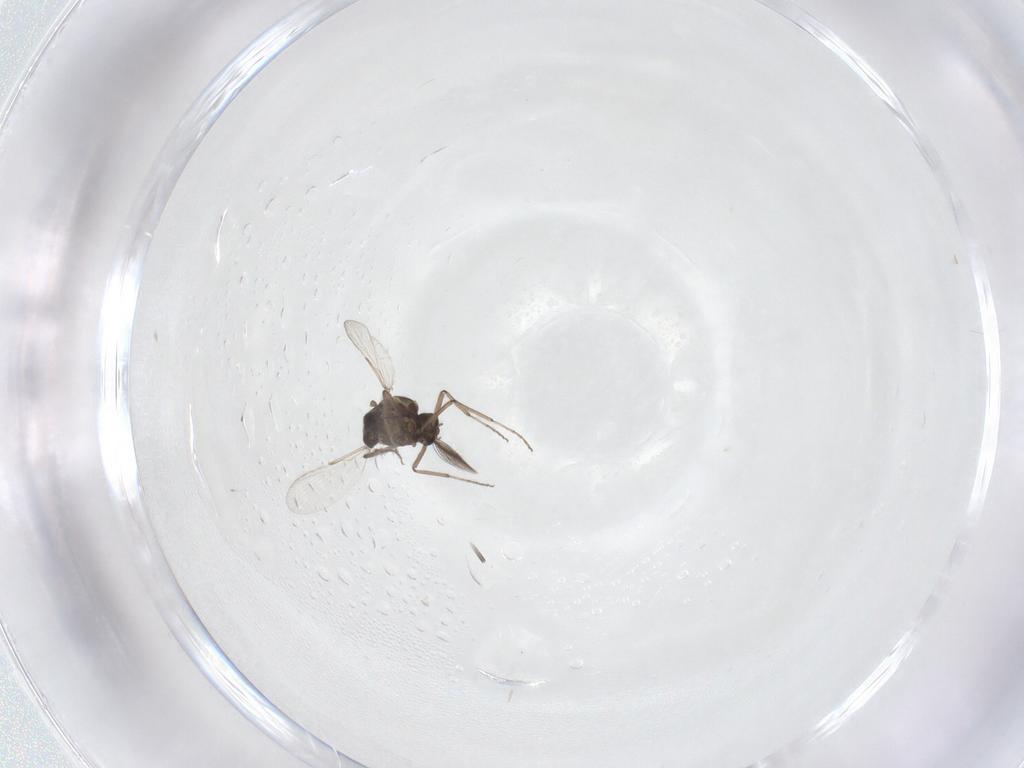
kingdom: Animalia
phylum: Arthropoda
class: Insecta
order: Diptera
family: Ceratopogonidae
